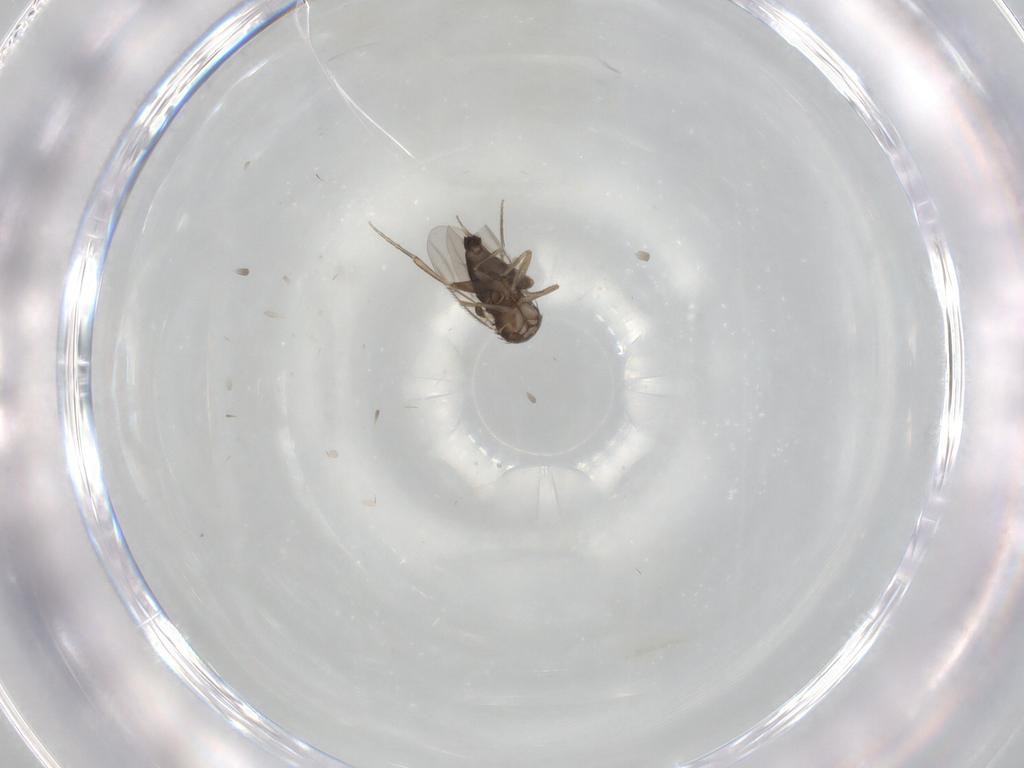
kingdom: Animalia
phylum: Arthropoda
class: Insecta
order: Diptera
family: Phoridae
